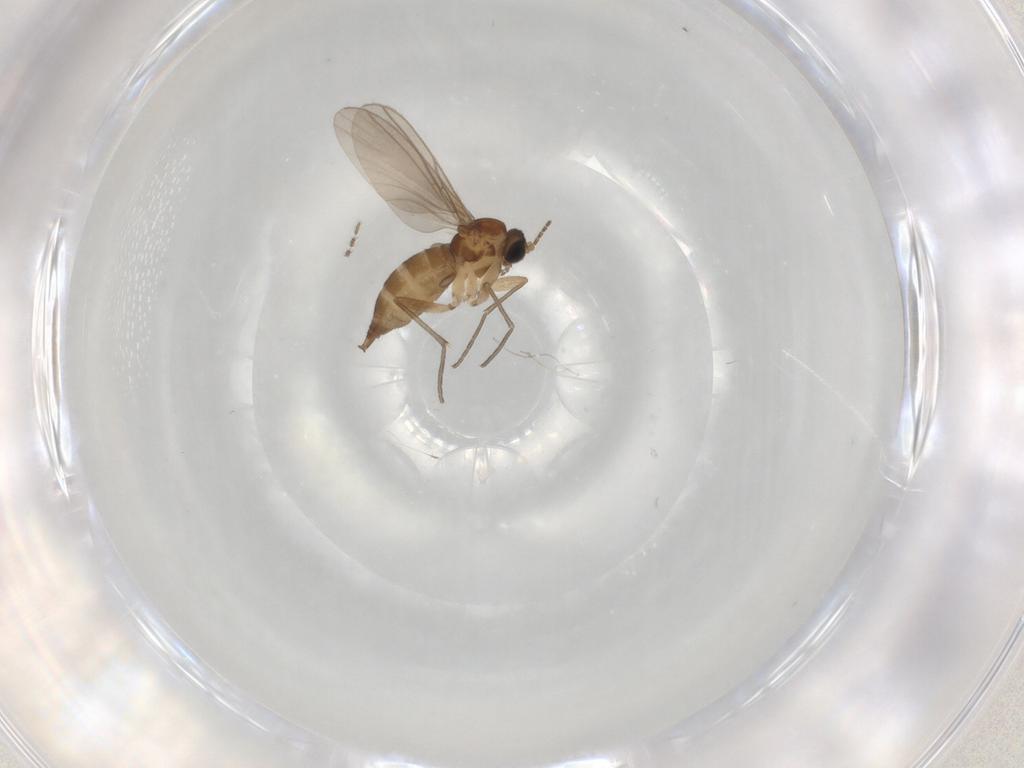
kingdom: Animalia
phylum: Arthropoda
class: Insecta
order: Diptera
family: Sciaridae
